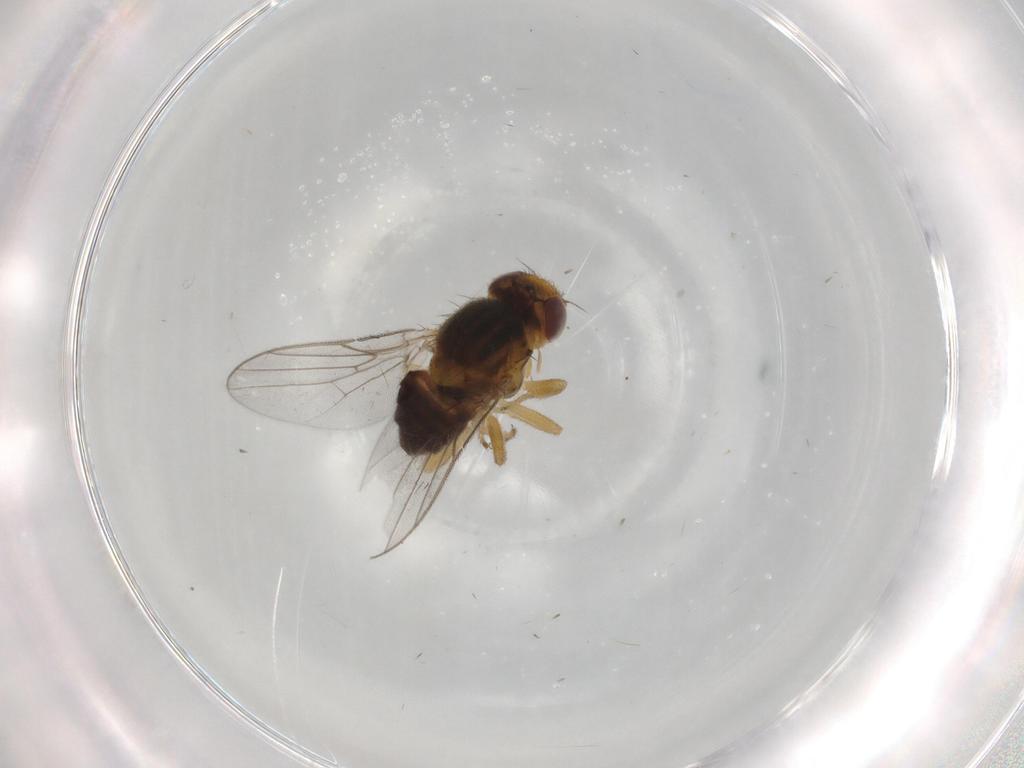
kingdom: Animalia
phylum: Arthropoda
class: Insecta
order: Diptera
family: Chloropidae
